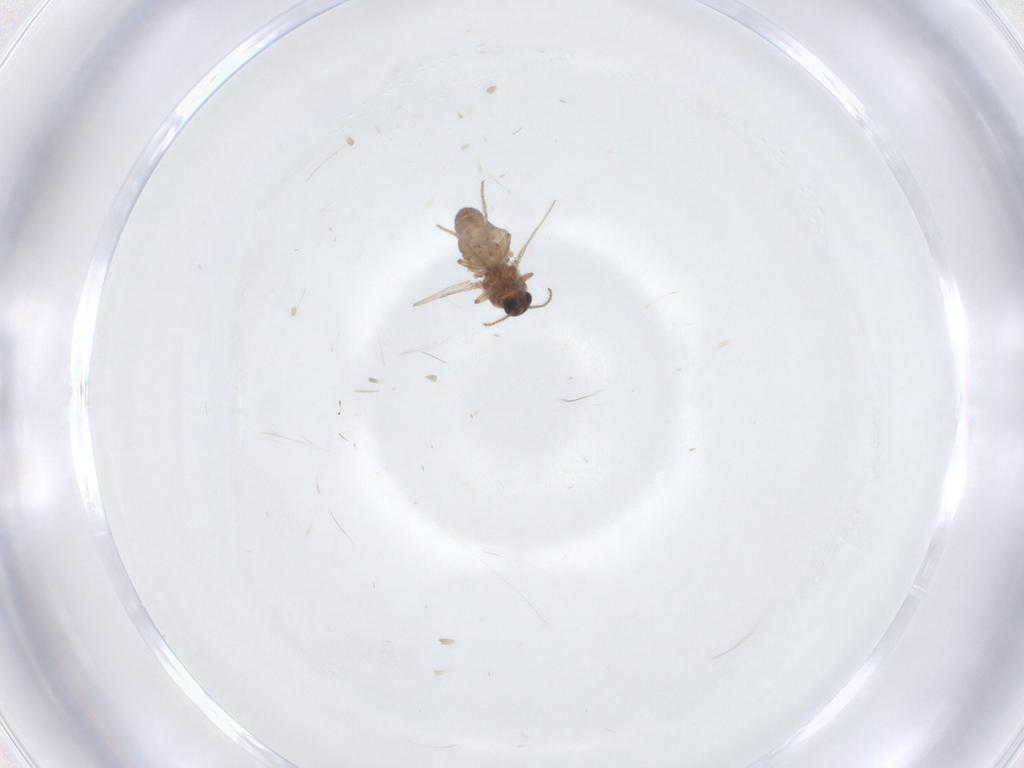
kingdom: Animalia
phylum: Arthropoda
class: Insecta
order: Diptera
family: Ceratopogonidae
